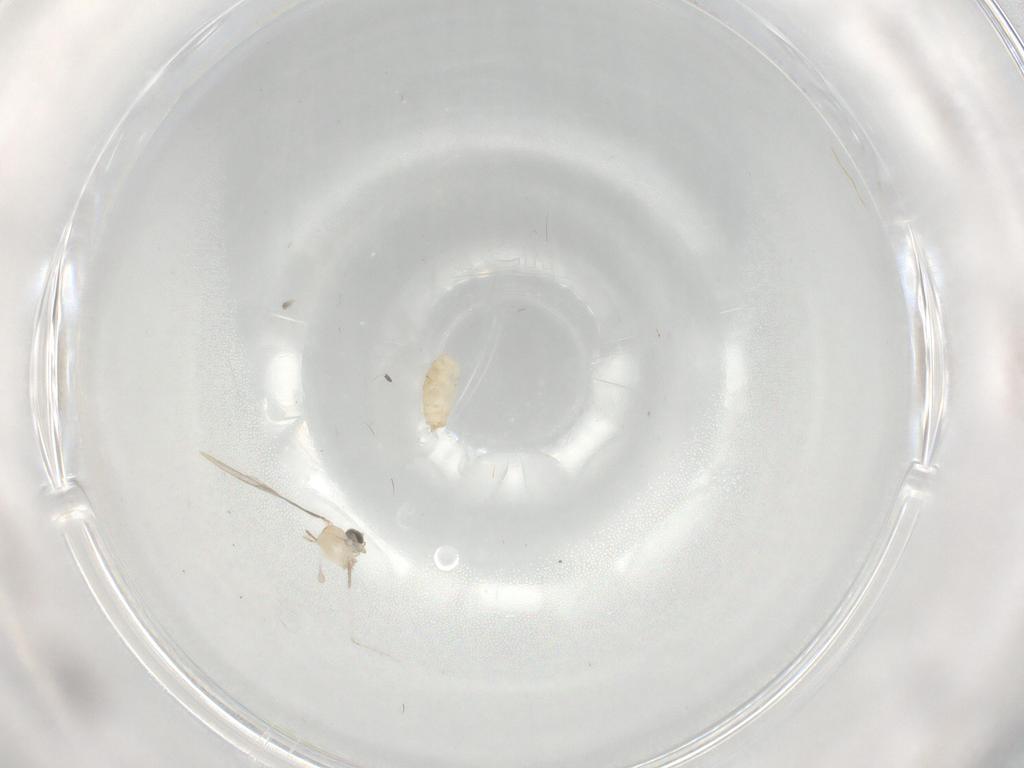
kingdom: Animalia
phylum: Arthropoda
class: Insecta
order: Diptera
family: Cecidomyiidae
